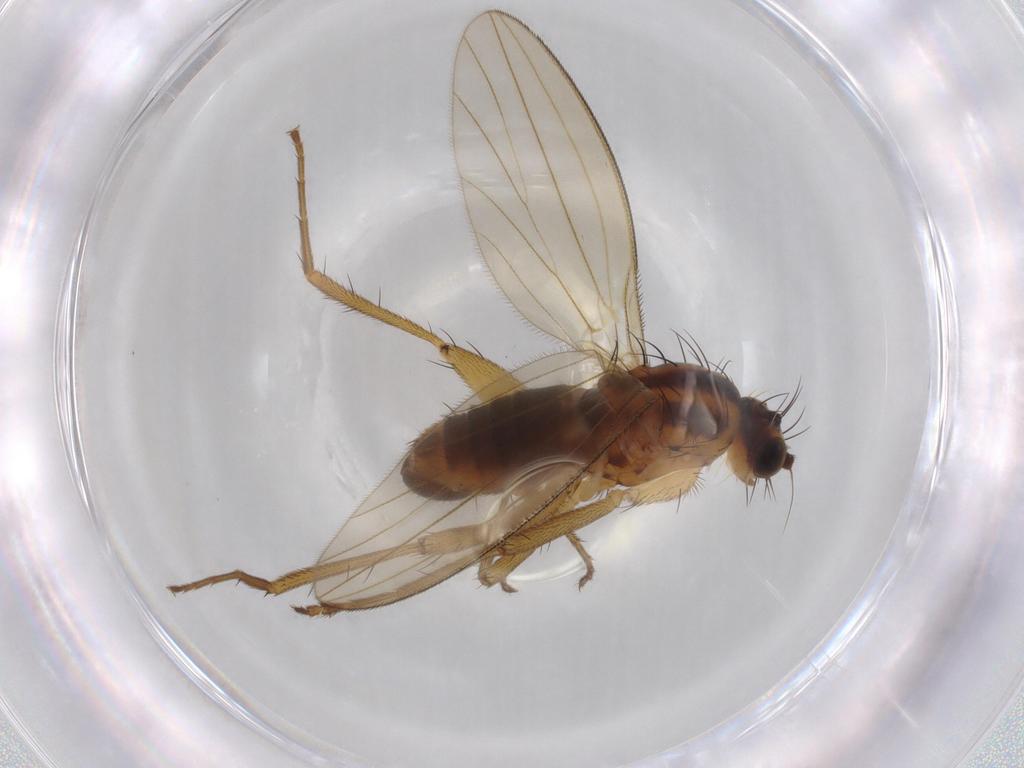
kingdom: Animalia
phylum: Arthropoda
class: Insecta
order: Diptera
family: Lonchopteridae
